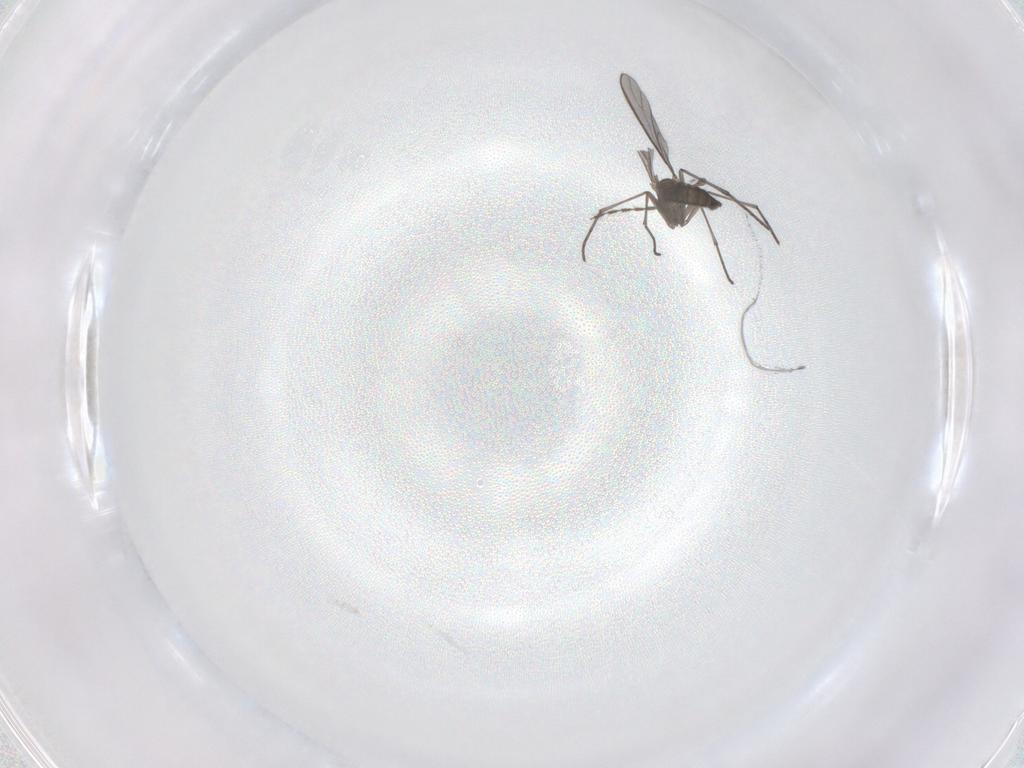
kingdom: Animalia
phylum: Arthropoda
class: Insecta
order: Diptera
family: Sciaridae
